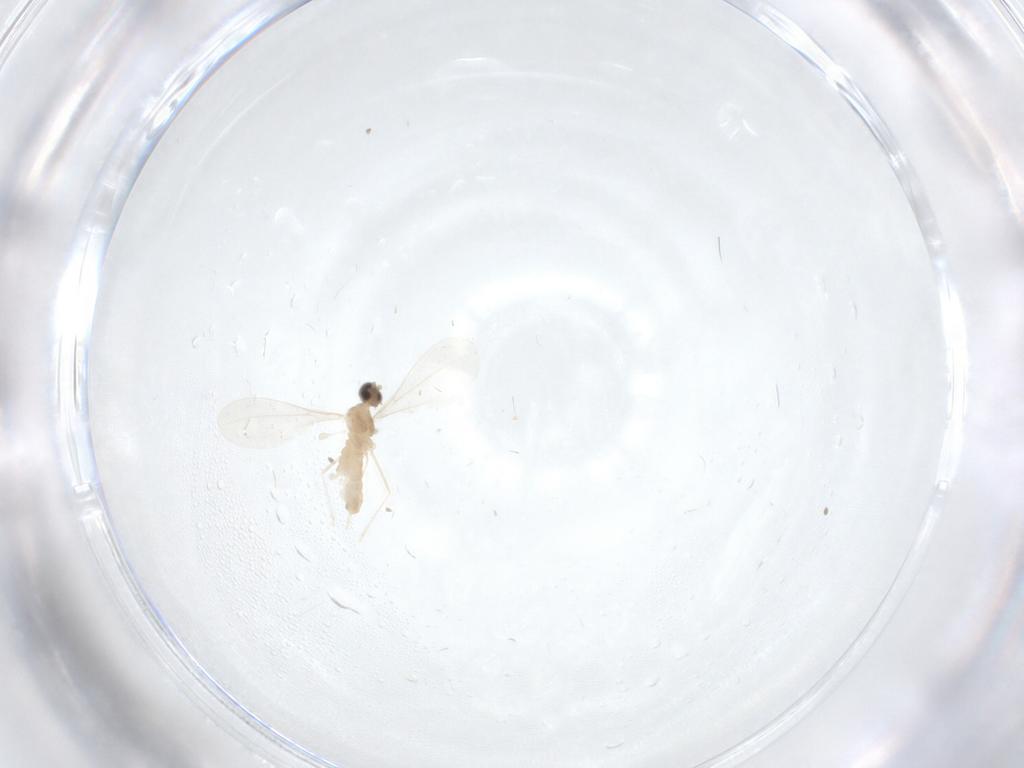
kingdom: Animalia
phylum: Arthropoda
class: Insecta
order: Diptera
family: Cecidomyiidae
